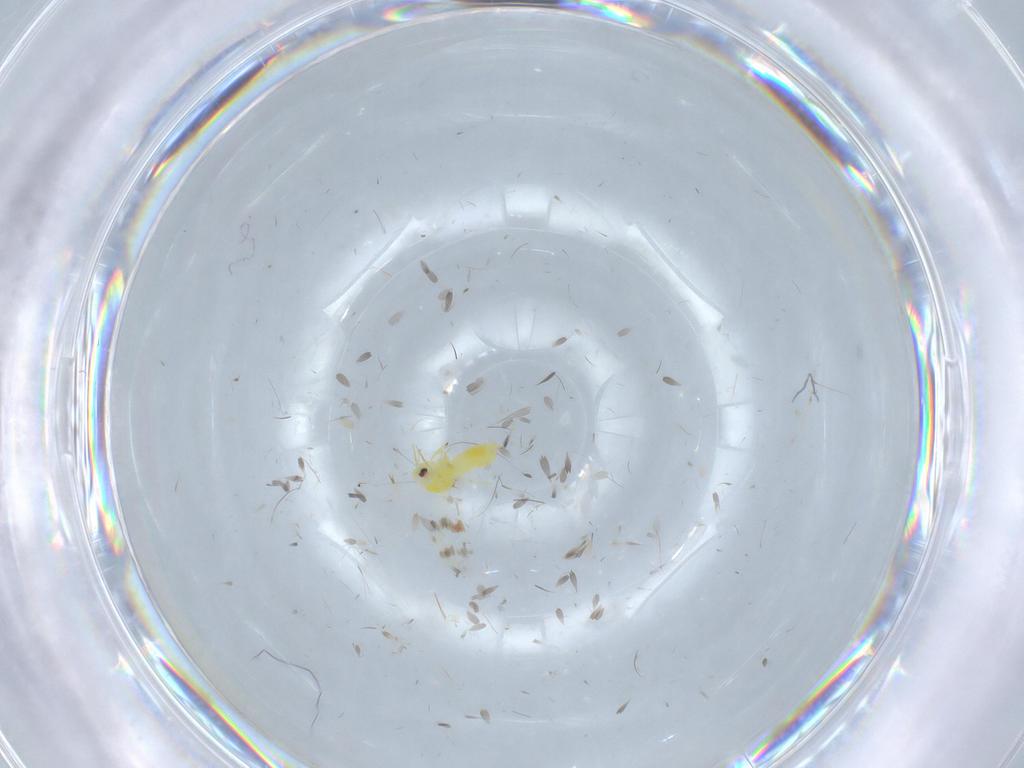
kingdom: Animalia
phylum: Arthropoda
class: Insecta
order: Hemiptera
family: Aleyrodidae
